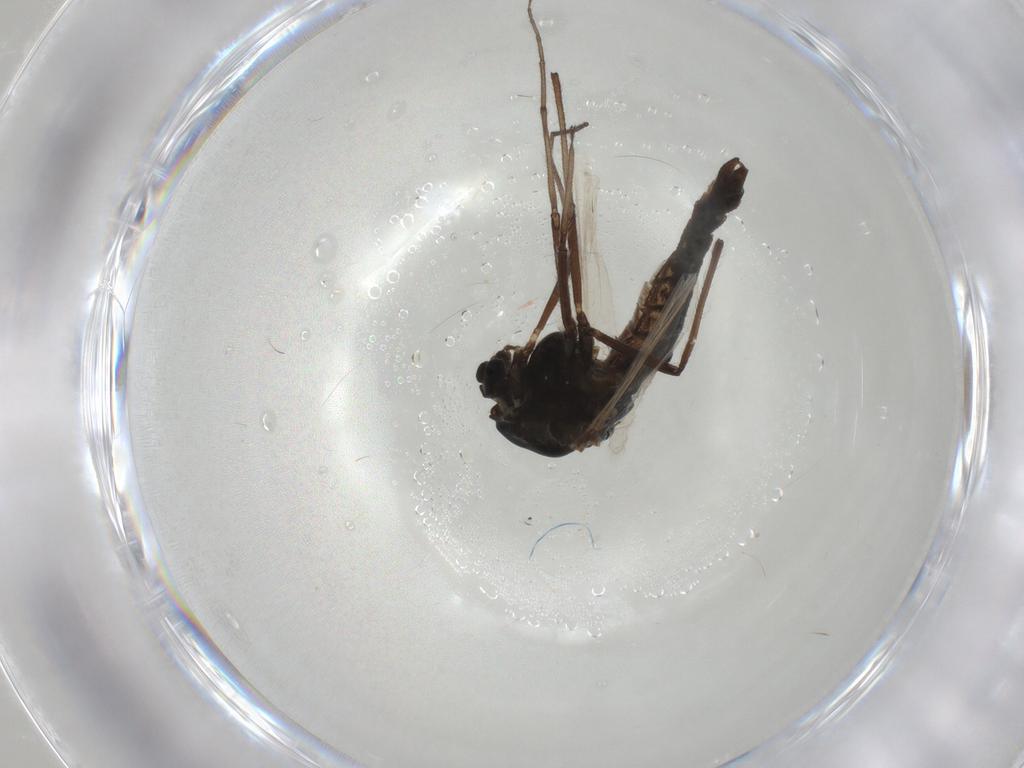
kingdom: Animalia
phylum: Arthropoda
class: Insecta
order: Diptera
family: Chironomidae
